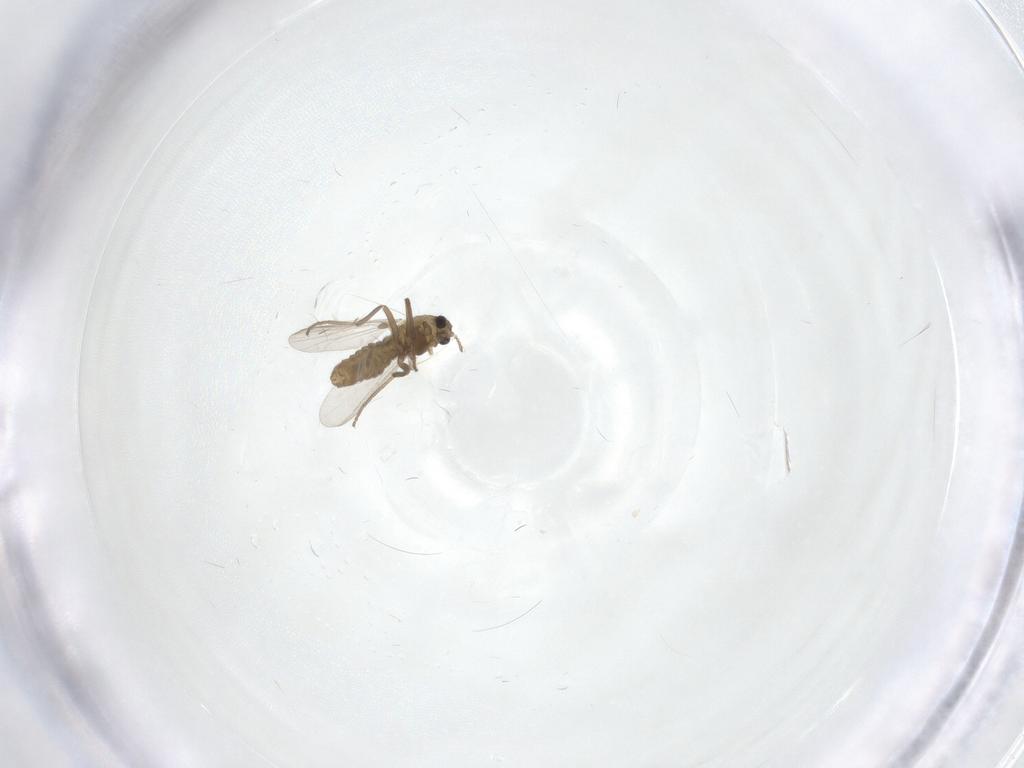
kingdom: Animalia
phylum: Arthropoda
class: Insecta
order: Diptera
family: Chironomidae
